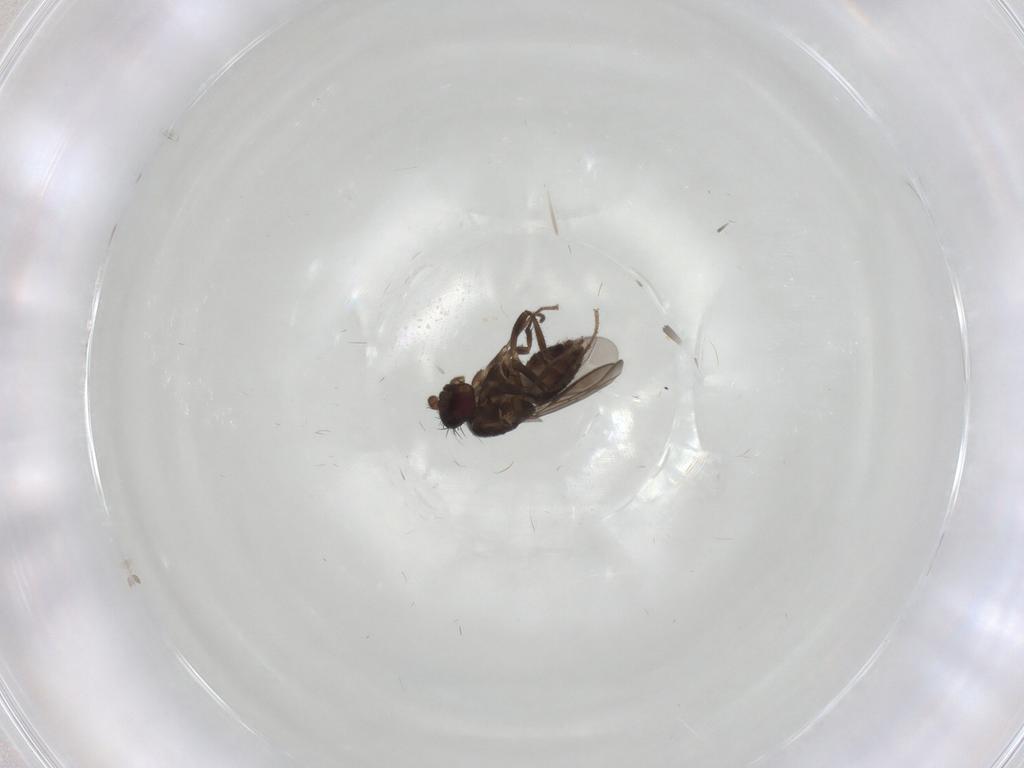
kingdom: Animalia
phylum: Arthropoda
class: Insecta
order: Diptera
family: Sphaeroceridae
